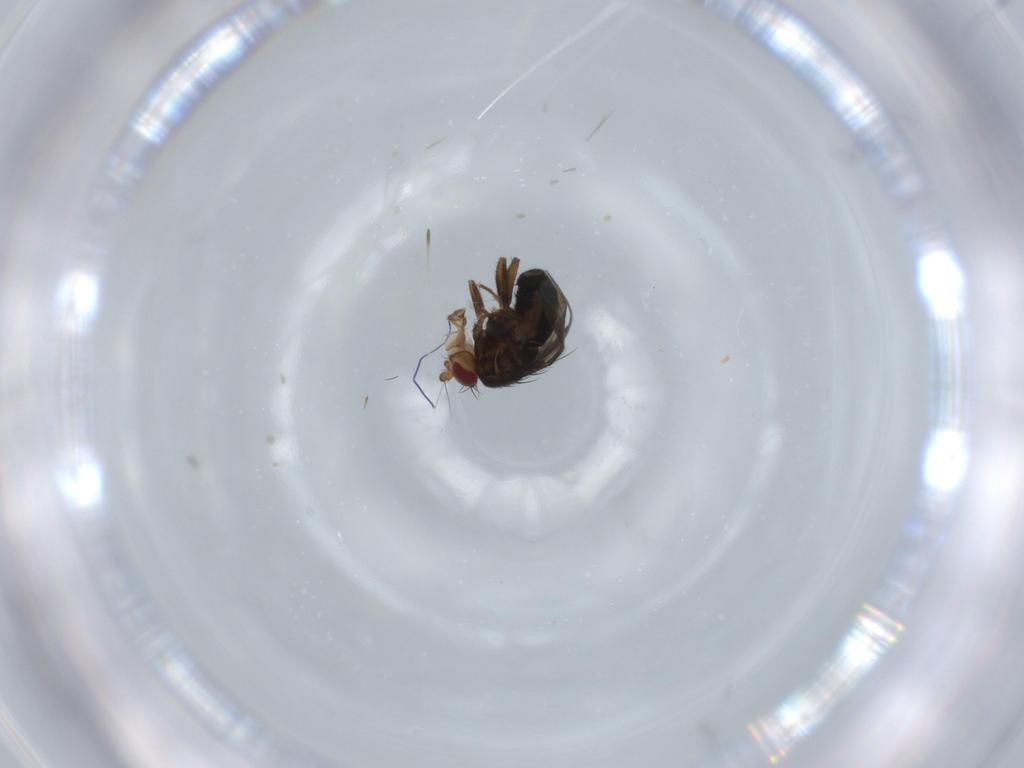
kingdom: Animalia
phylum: Arthropoda
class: Insecta
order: Diptera
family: Sphaeroceridae
